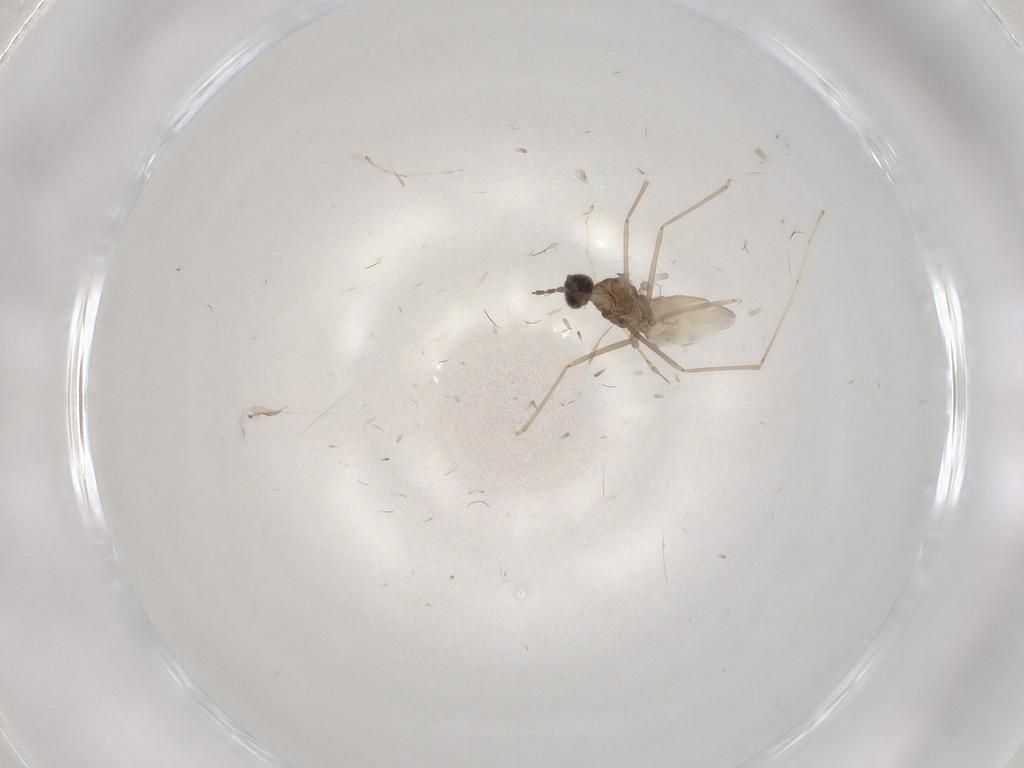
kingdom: Animalia
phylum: Arthropoda
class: Insecta
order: Diptera
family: Cecidomyiidae
